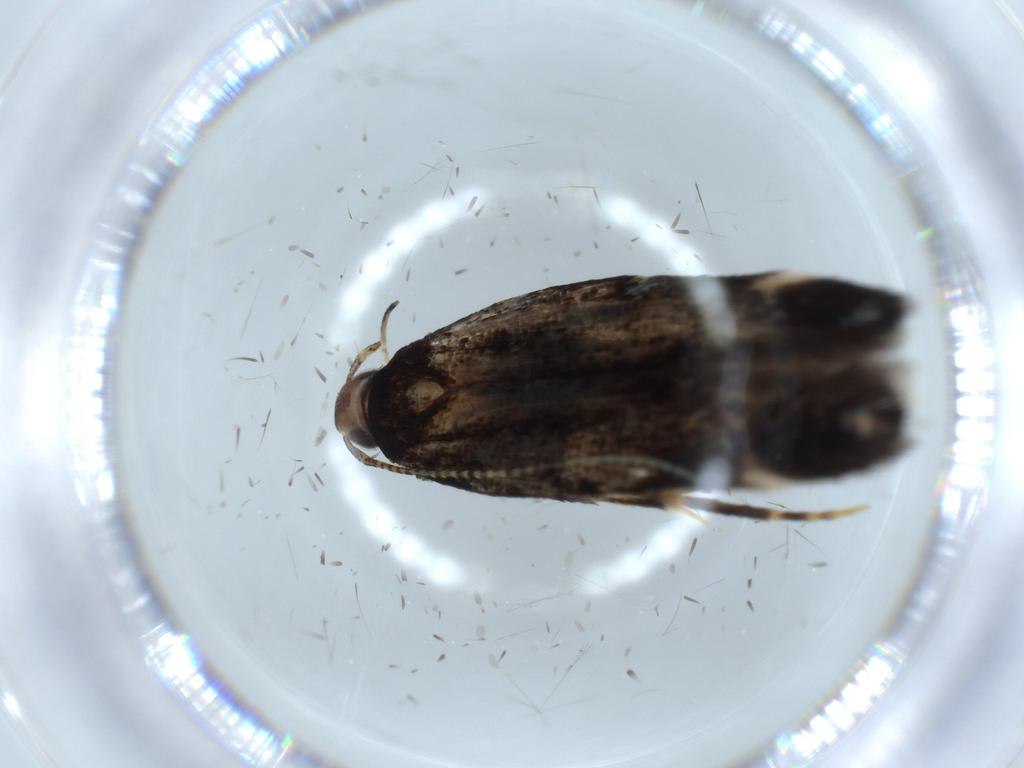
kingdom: Animalia
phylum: Arthropoda
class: Insecta
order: Lepidoptera
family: Cosmopterigidae
